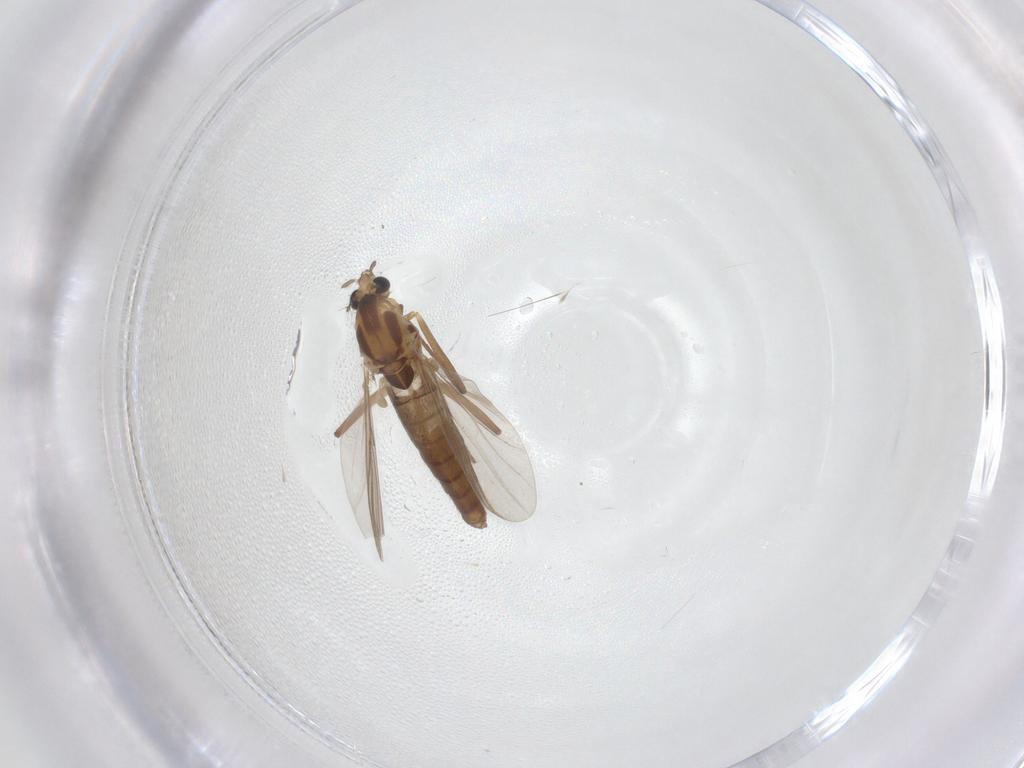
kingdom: Animalia
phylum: Arthropoda
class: Insecta
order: Diptera
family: Chironomidae
